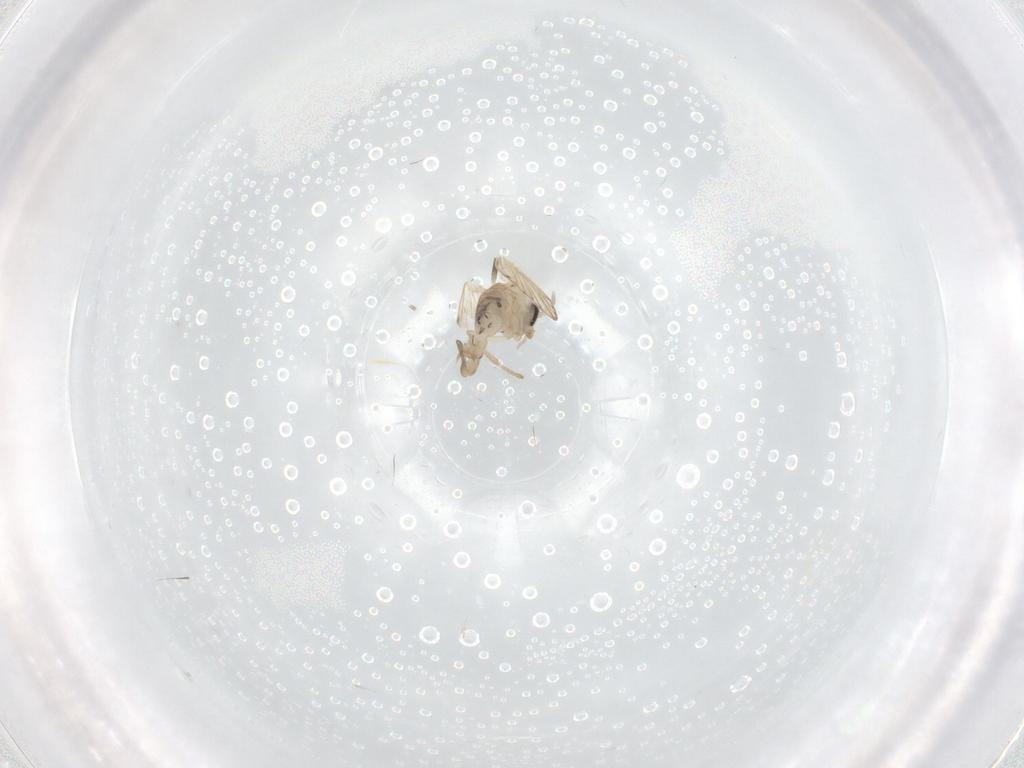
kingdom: Animalia
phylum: Arthropoda
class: Insecta
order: Diptera
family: Psychodidae
